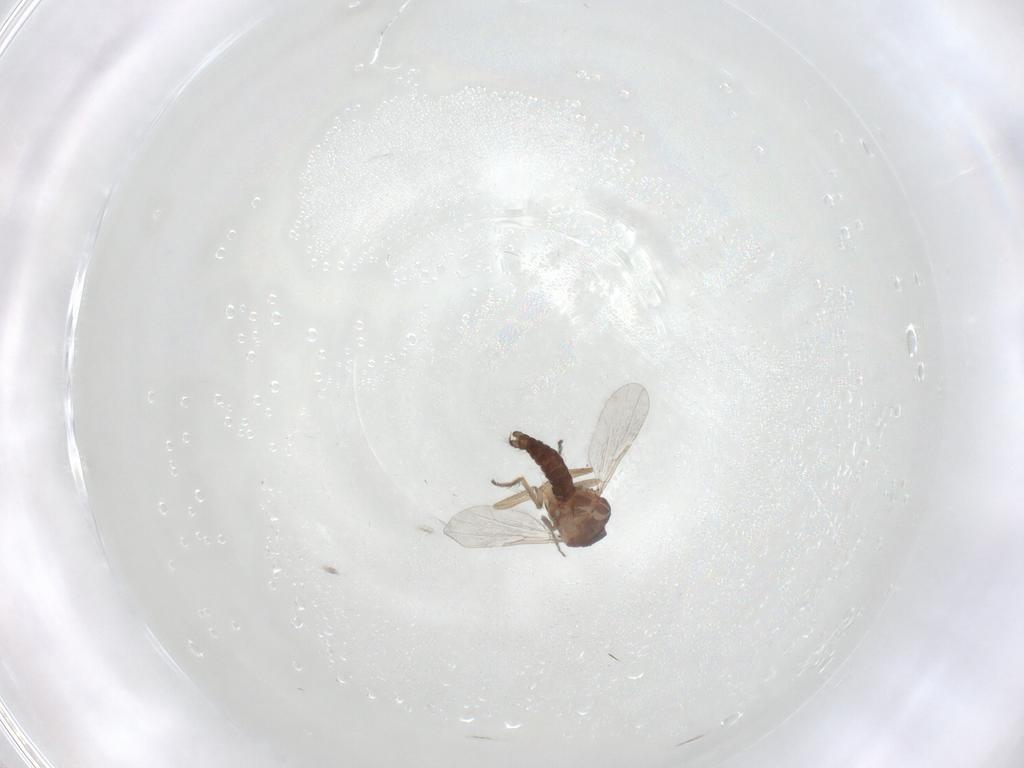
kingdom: Animalia
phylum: Arthropoda
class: Insecta
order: Diptera
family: Ceratopogonidae
